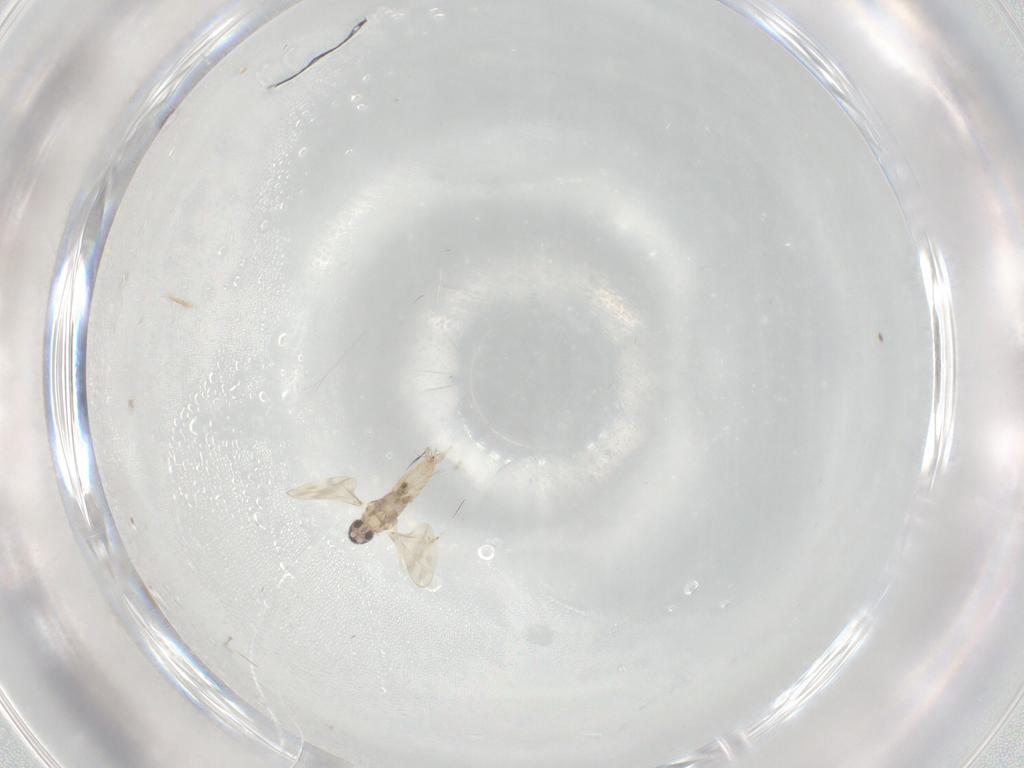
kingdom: Animalia
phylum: Arthropoda
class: Insecta
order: Diptera
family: Cecidomyiidae
